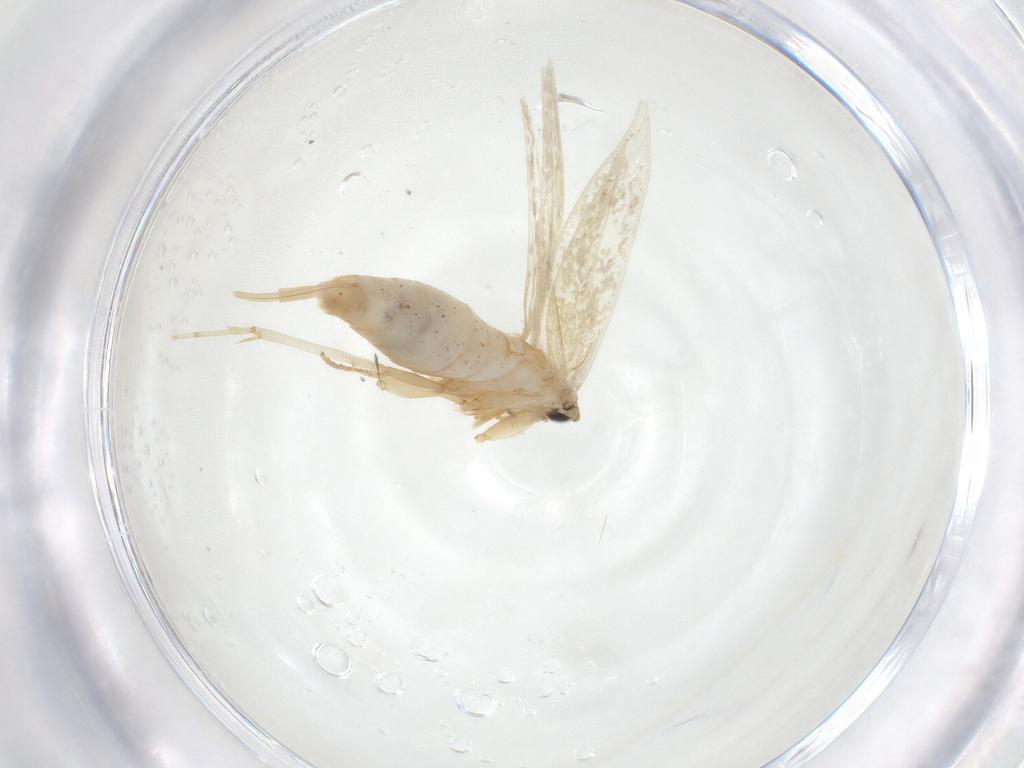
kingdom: Animalia
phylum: Arthropoda
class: Insecta
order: Lepidoptera
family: Tineidae
